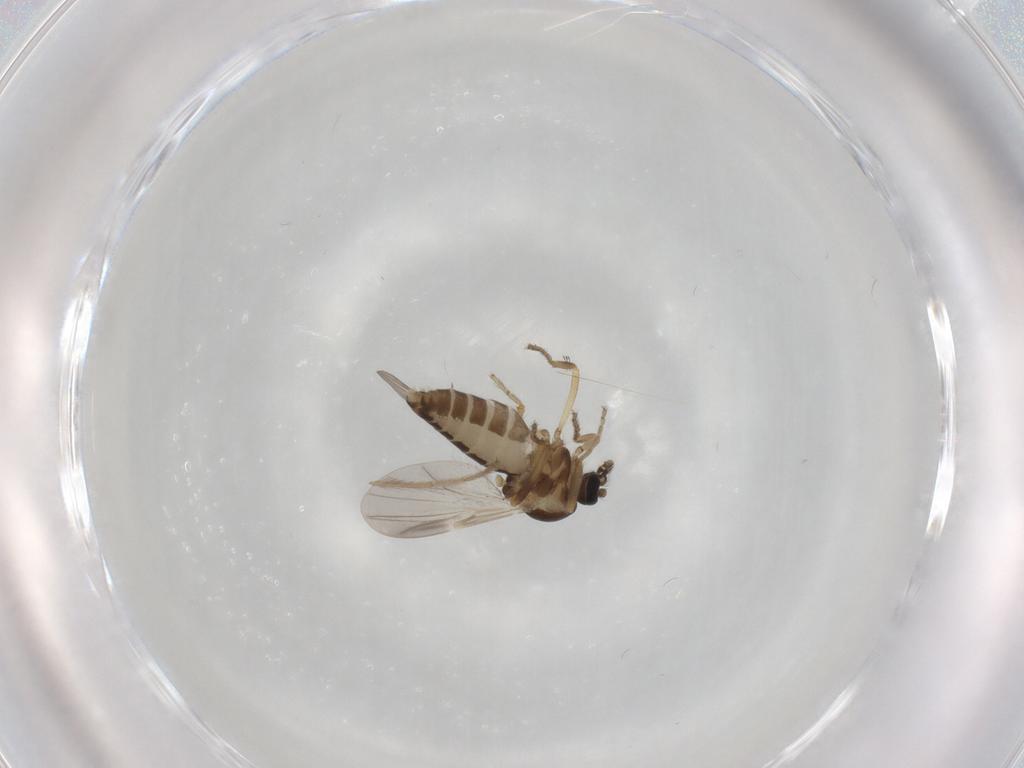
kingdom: Animalia
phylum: Arthropoda
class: Insecta
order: Diptera
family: Ceratopogonidae
